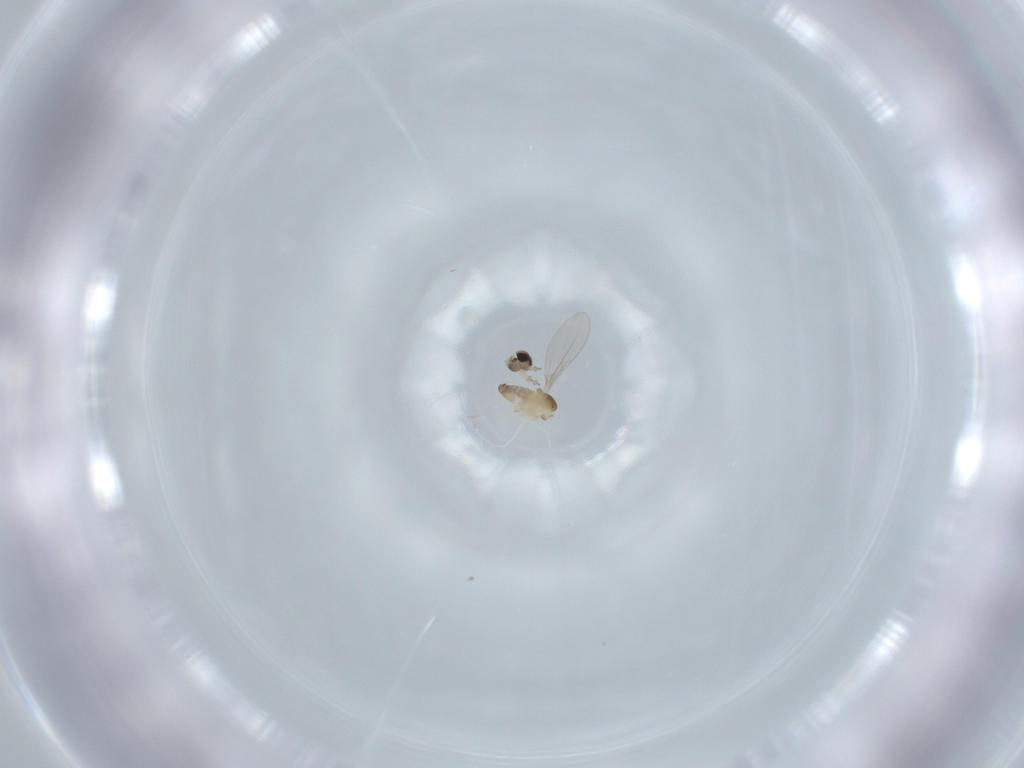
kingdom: Animalia
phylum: Arthropoda
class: Insecta
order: Diptera
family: Cecidomyiidae
